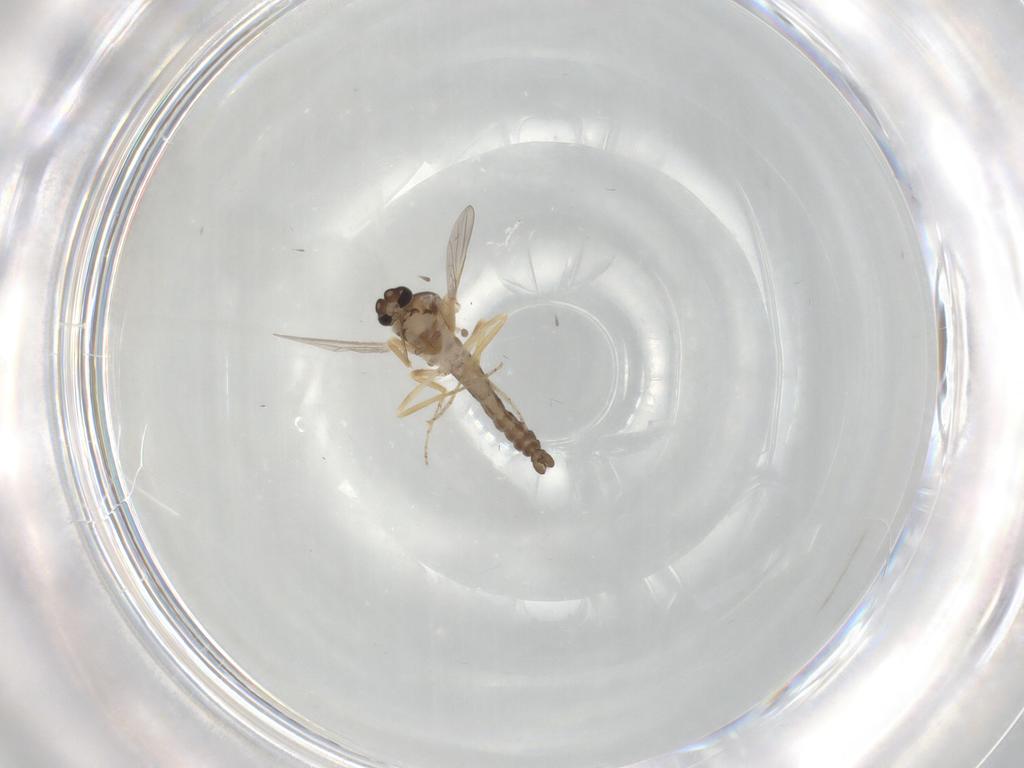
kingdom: Animalia
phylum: Arthropoda
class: Insecta
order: Diptera
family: Ceratopogonidae
